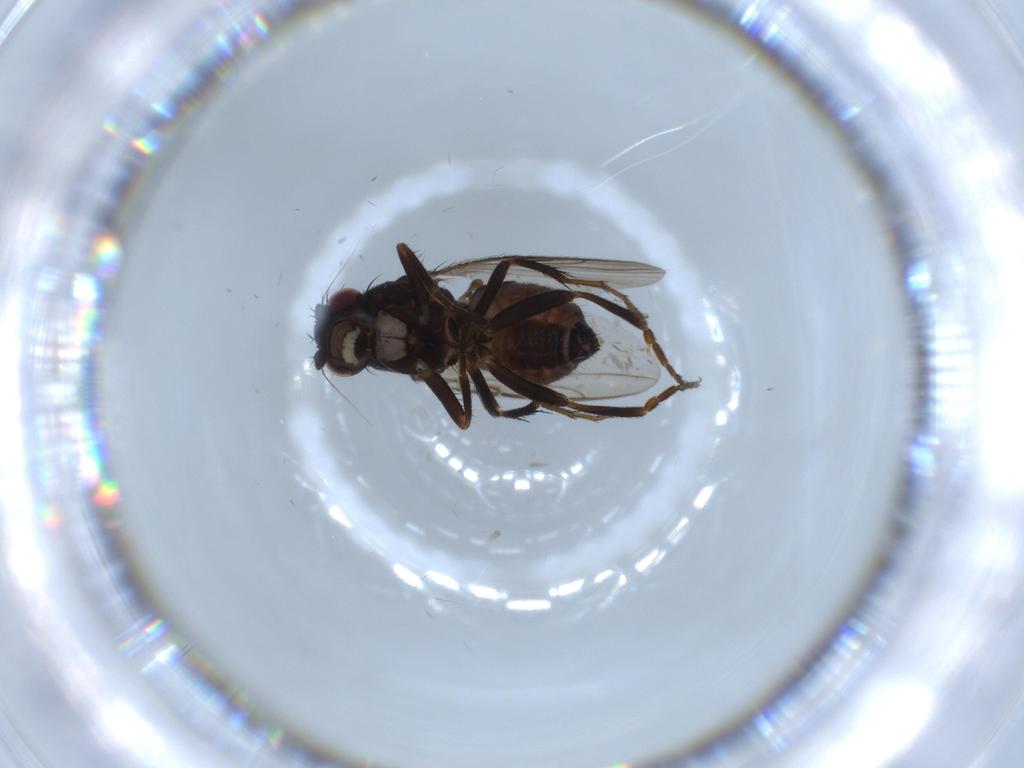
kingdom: Animalia
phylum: Arthropoda
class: Insecta
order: Diptera
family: Sphaeroceridae
